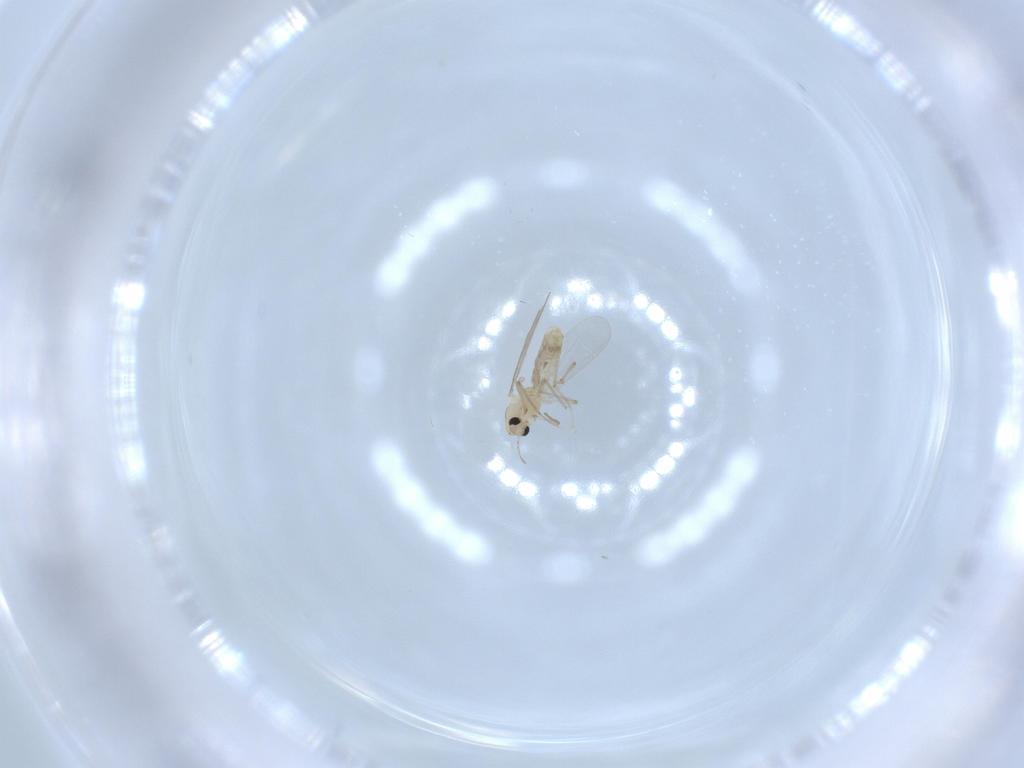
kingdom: Animalia
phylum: Arthropoda
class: Insecta
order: Diptera
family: Chironomidae
